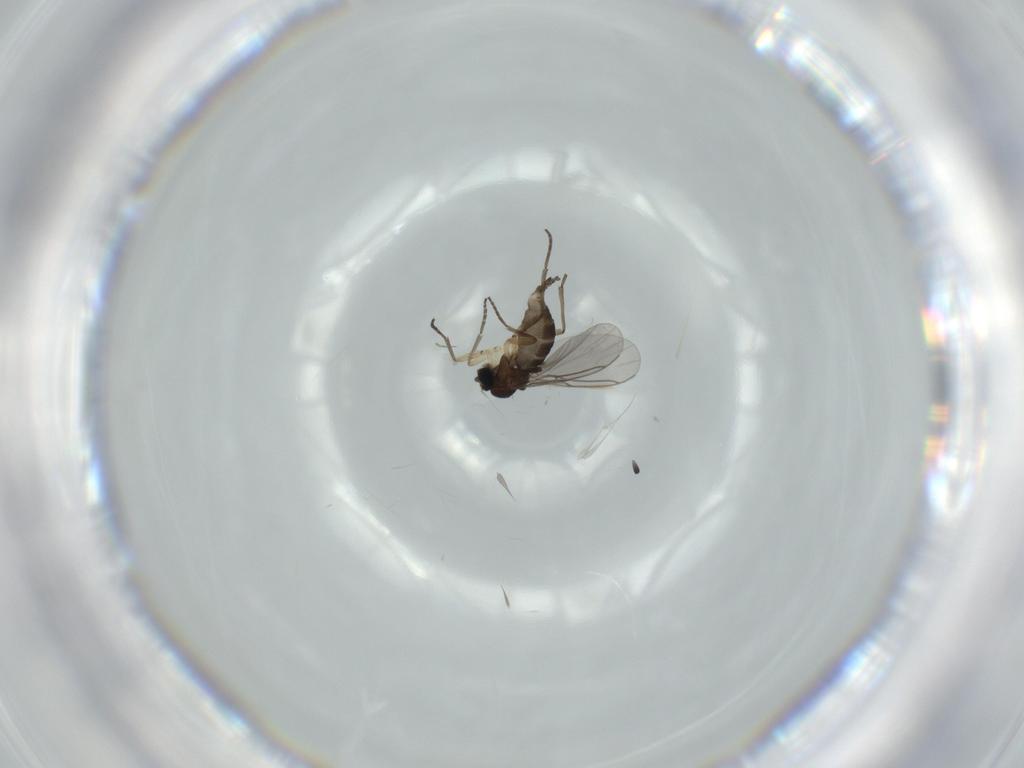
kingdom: Animalia
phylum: Arthropoda
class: Insecta
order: Diptera
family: Sciaridae
